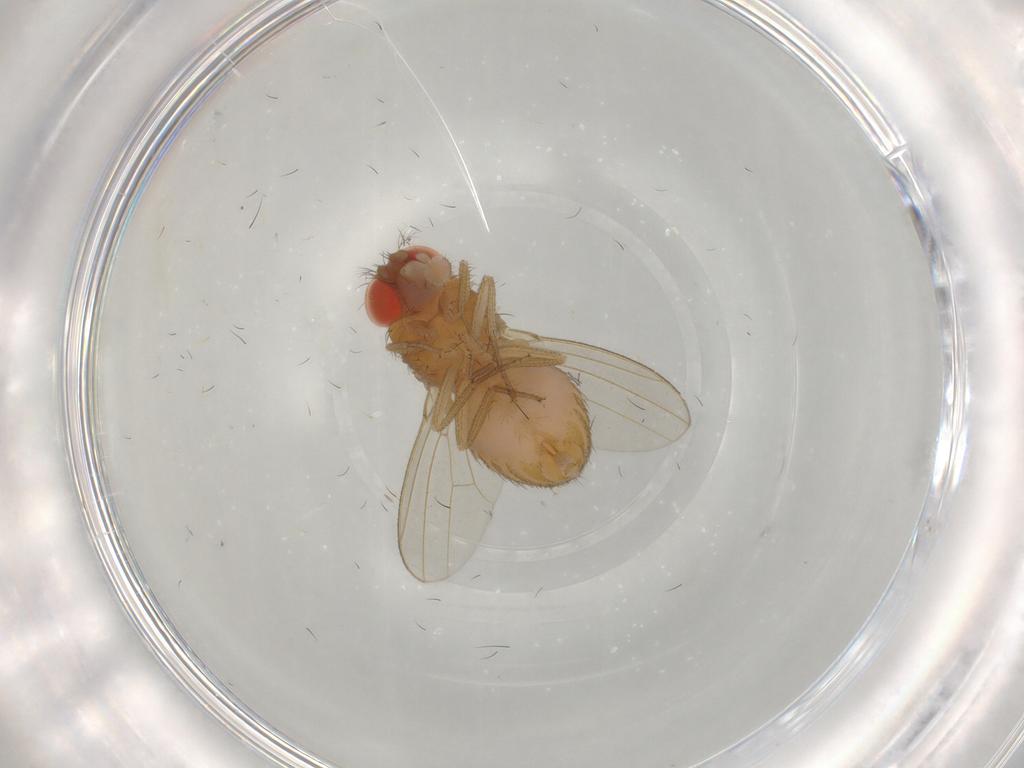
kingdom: Animalia
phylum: Arthropoda
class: Insecta
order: Diptera
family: Drosophilidae
